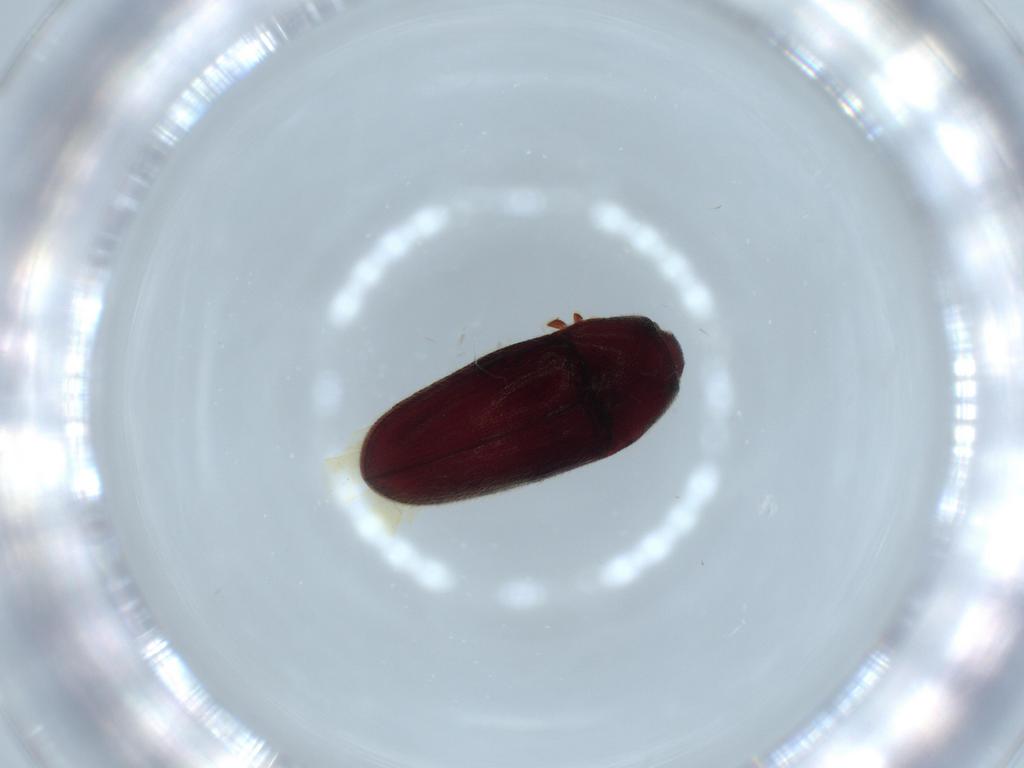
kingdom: Animalia
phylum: Arthropoda
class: Insecta
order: Coleoptera
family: Throscidae
